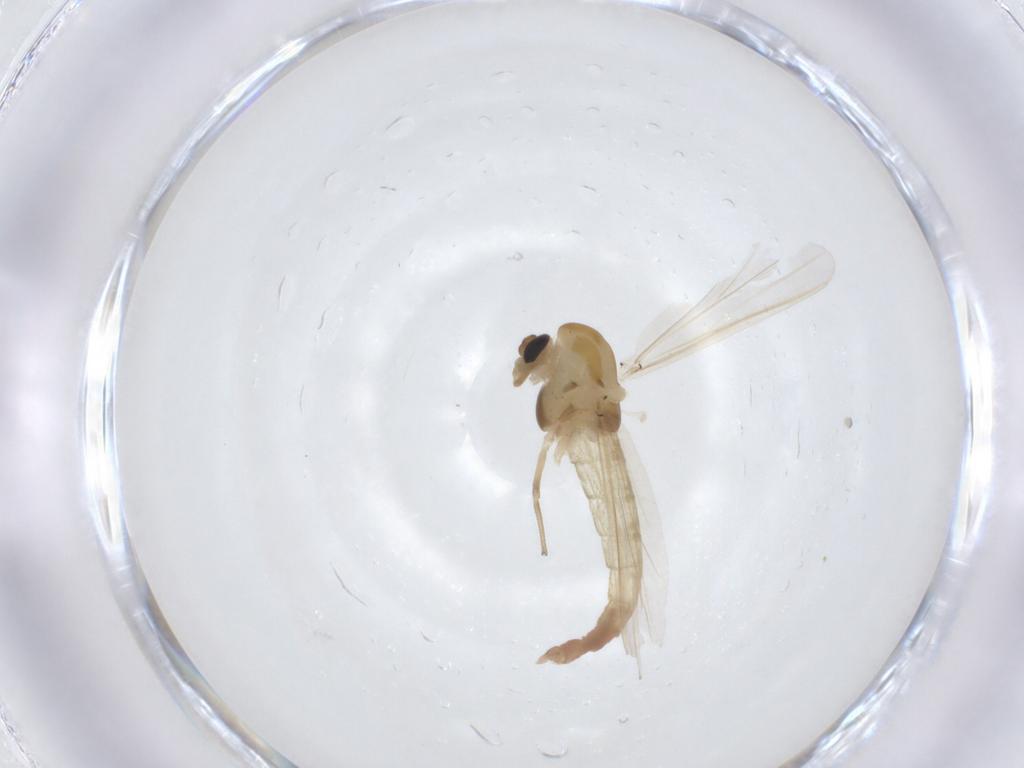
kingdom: Animalia
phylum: Arthropoda
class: Insecta
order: Diptera
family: Chironomidae
